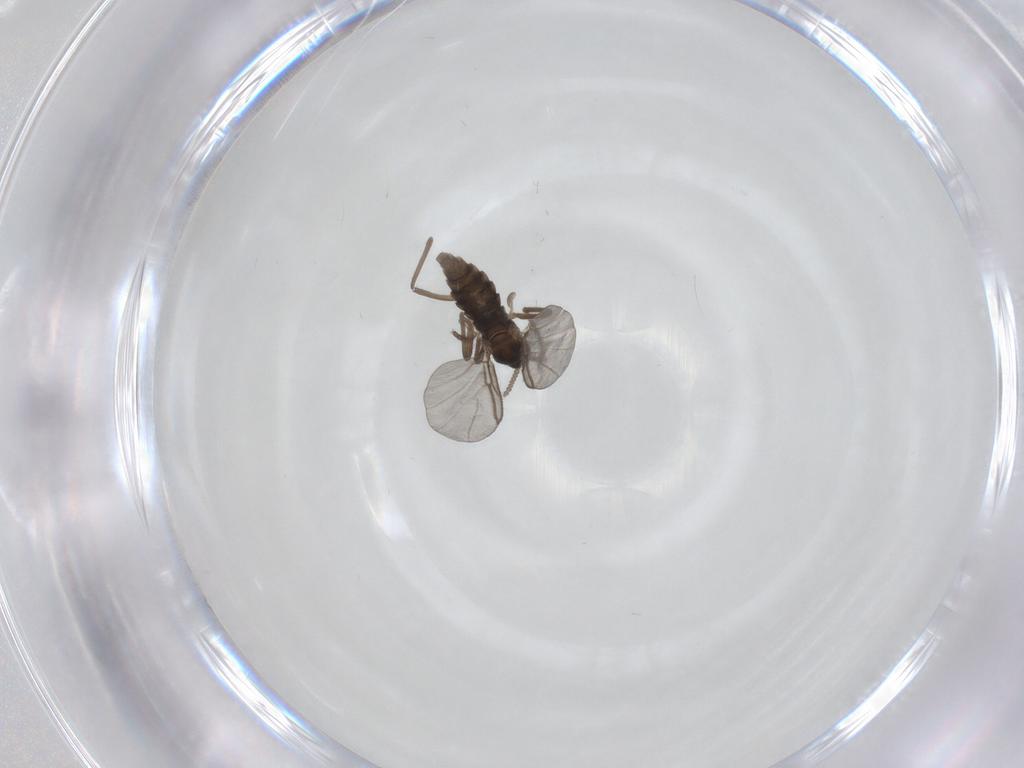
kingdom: Animalia
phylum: Arthropoda
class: Insecta
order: Diptera
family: Cecidomyiidae
